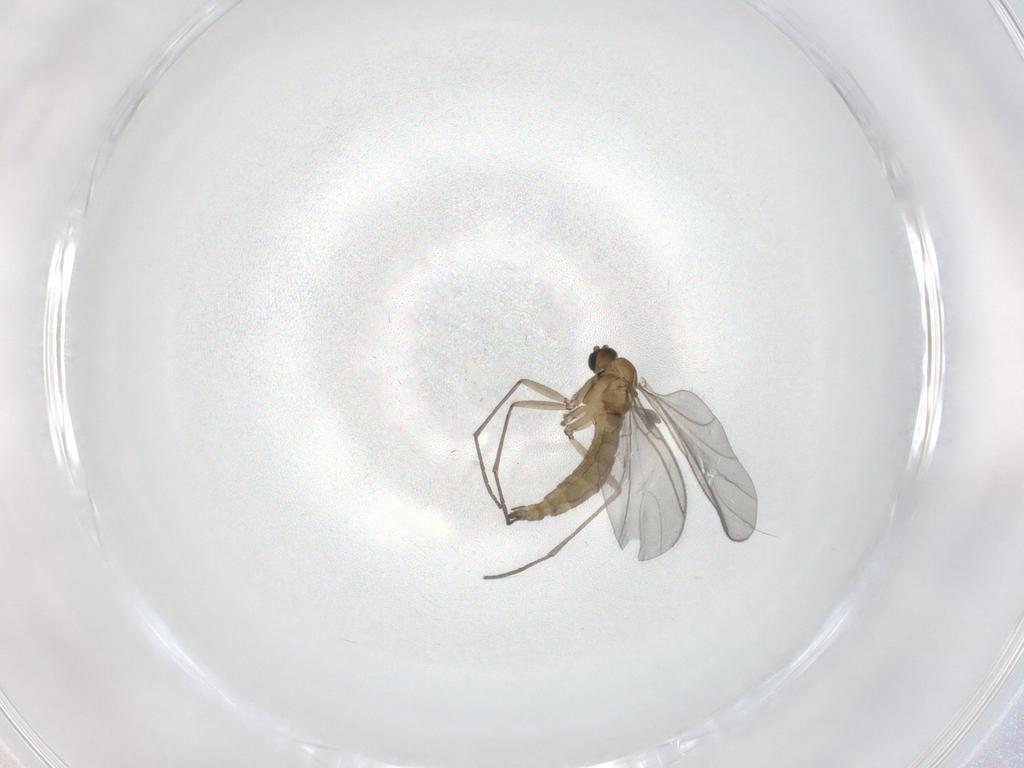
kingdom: Animalia
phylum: Arthropoda
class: Insecta
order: Diptera
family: Sciaridae
